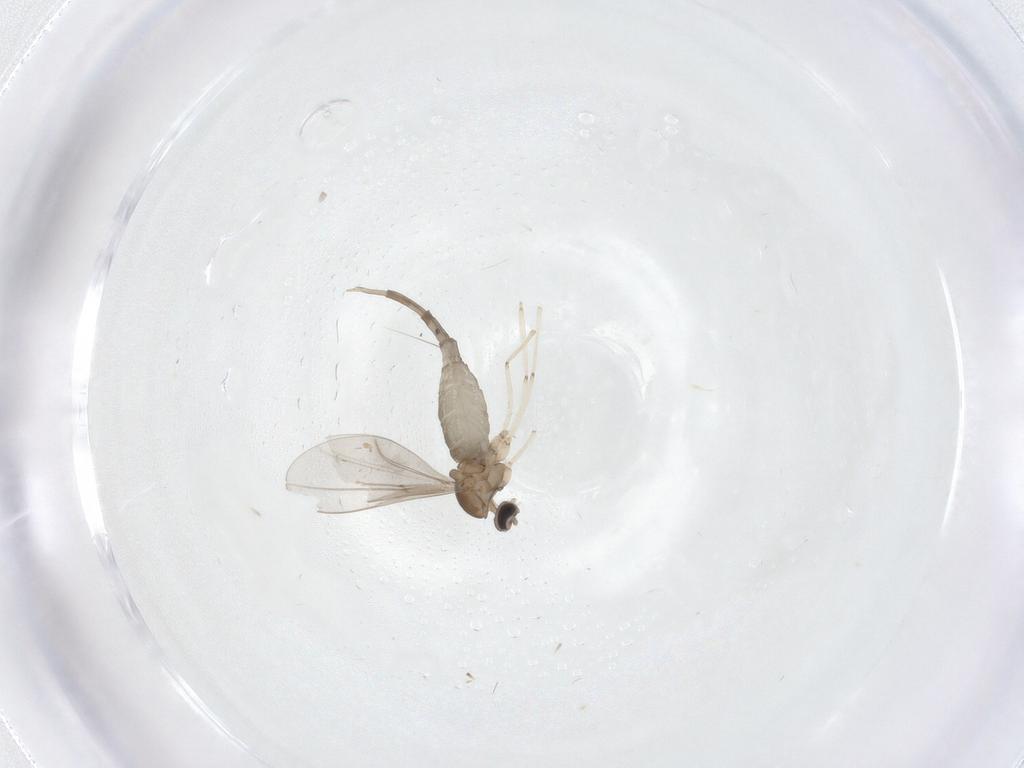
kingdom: Animalia
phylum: Arthropoda
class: Insecta
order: Diptera
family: Cecidomyiidae
